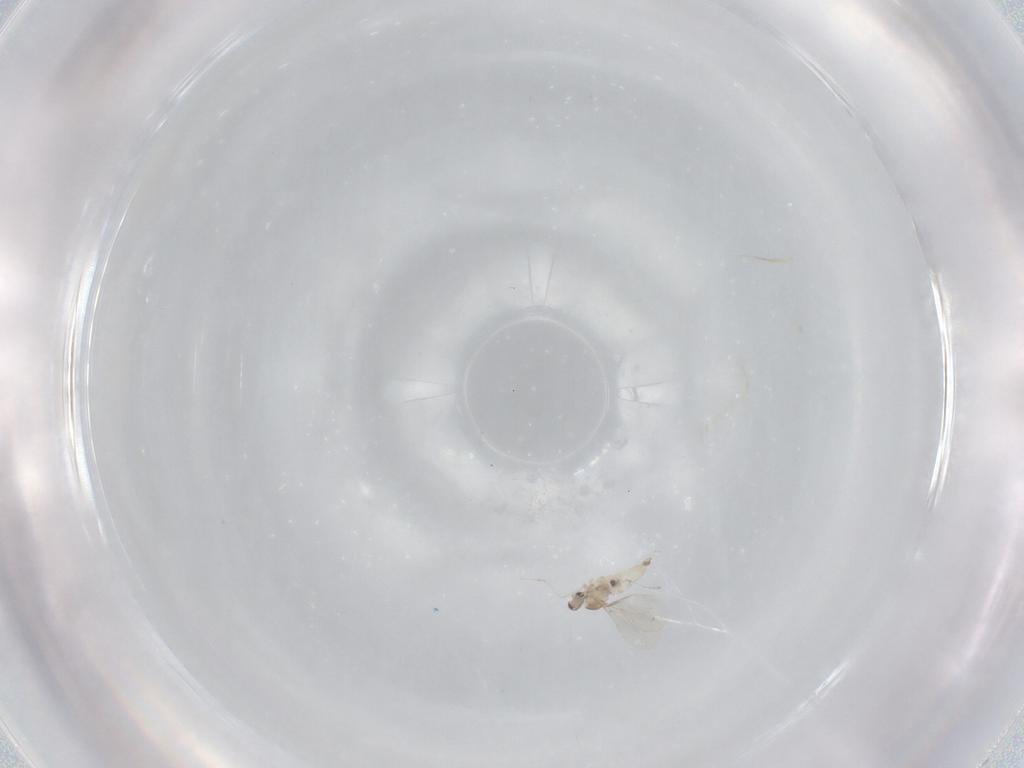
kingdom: Animalia
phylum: Arthropoda
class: Insecta
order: Diptera
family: Psychodidae
